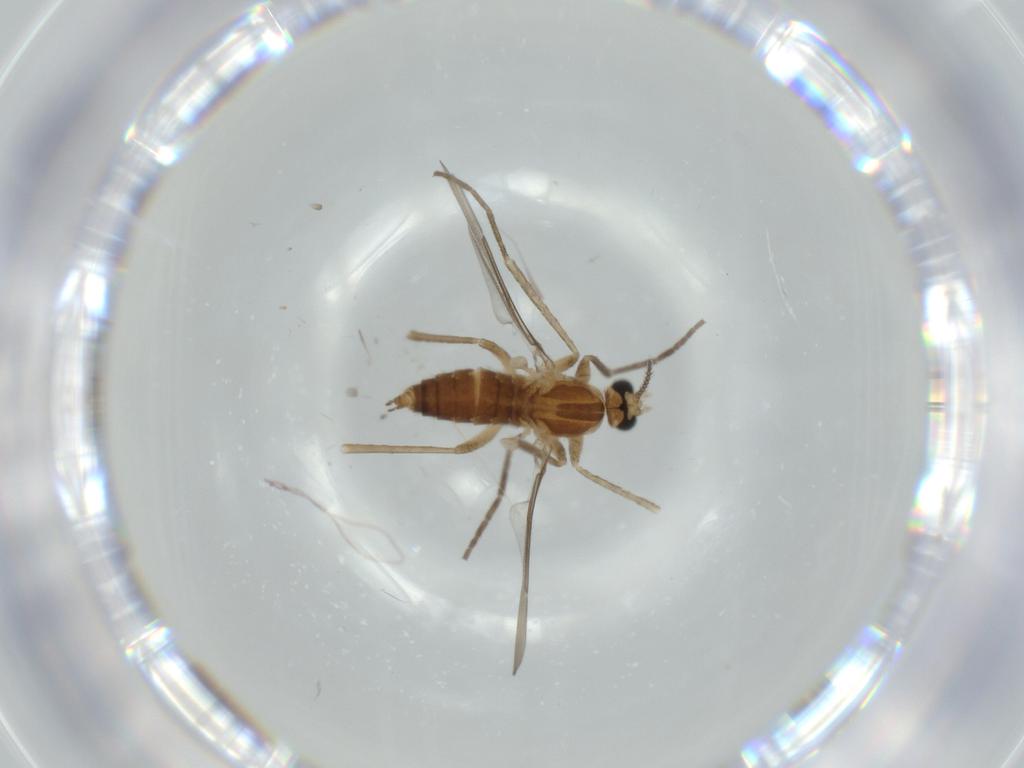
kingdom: Animalia
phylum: Arthropoda
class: Insecta
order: Diptera
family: Cecidomyiidae
